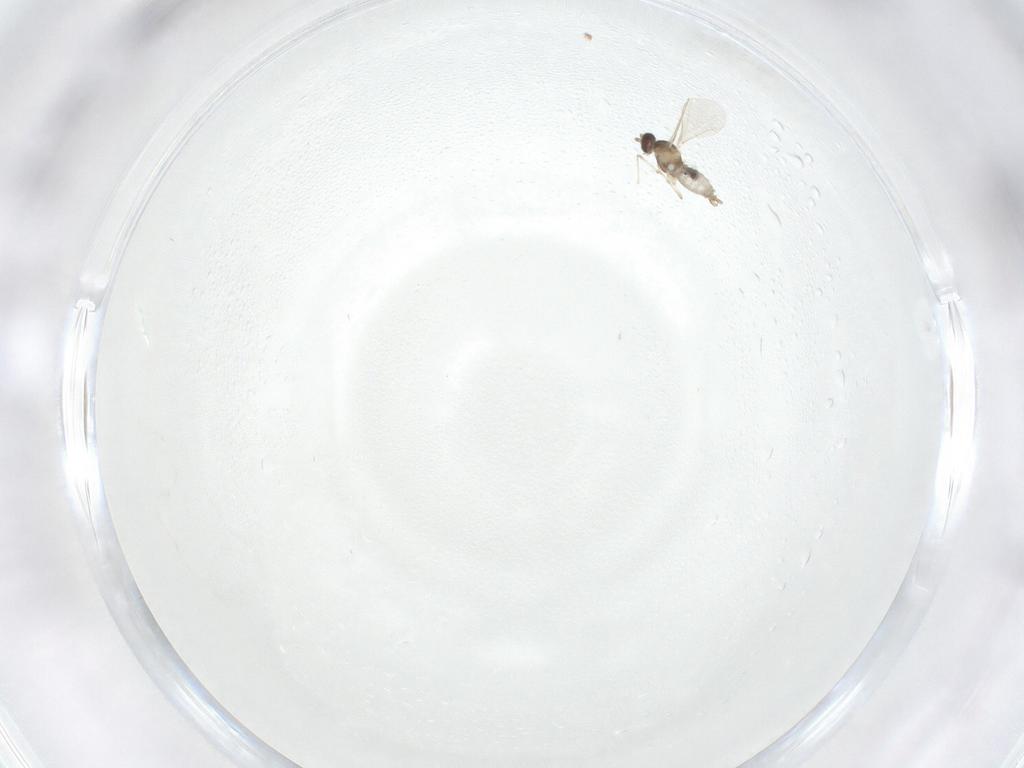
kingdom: Animalia
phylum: Arthropoda
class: Insecta
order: Diptera
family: Cecidomyiidae
